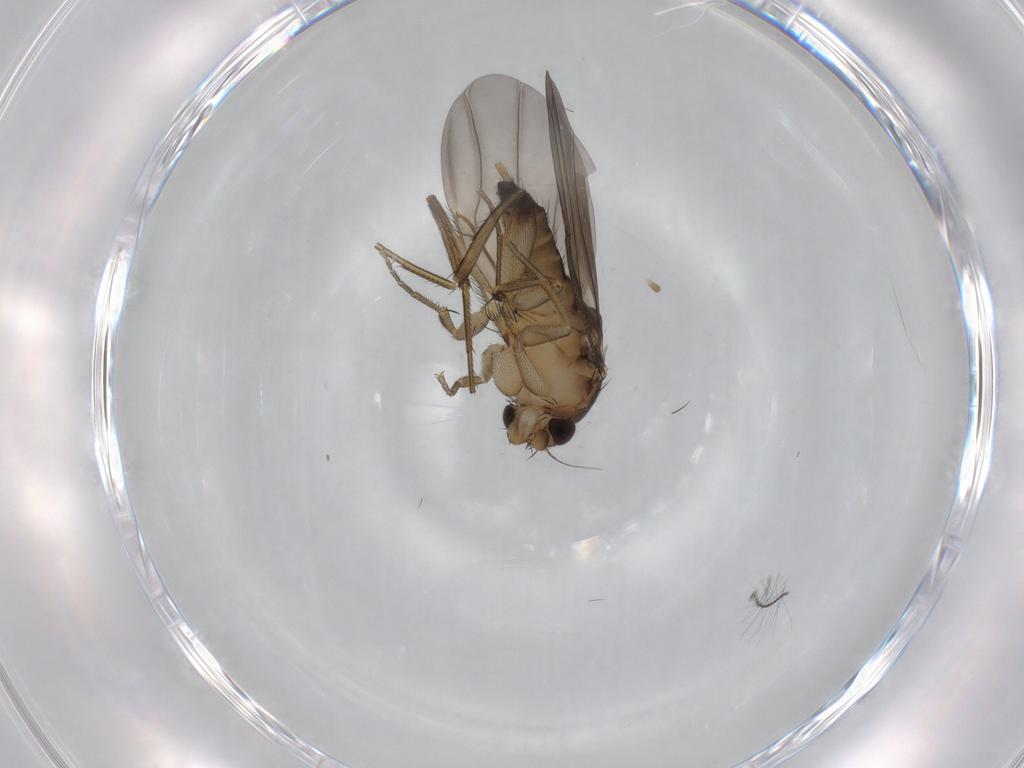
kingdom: Animalia
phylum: Arthropoda
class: Insecta
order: Diptera
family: Phoridae
